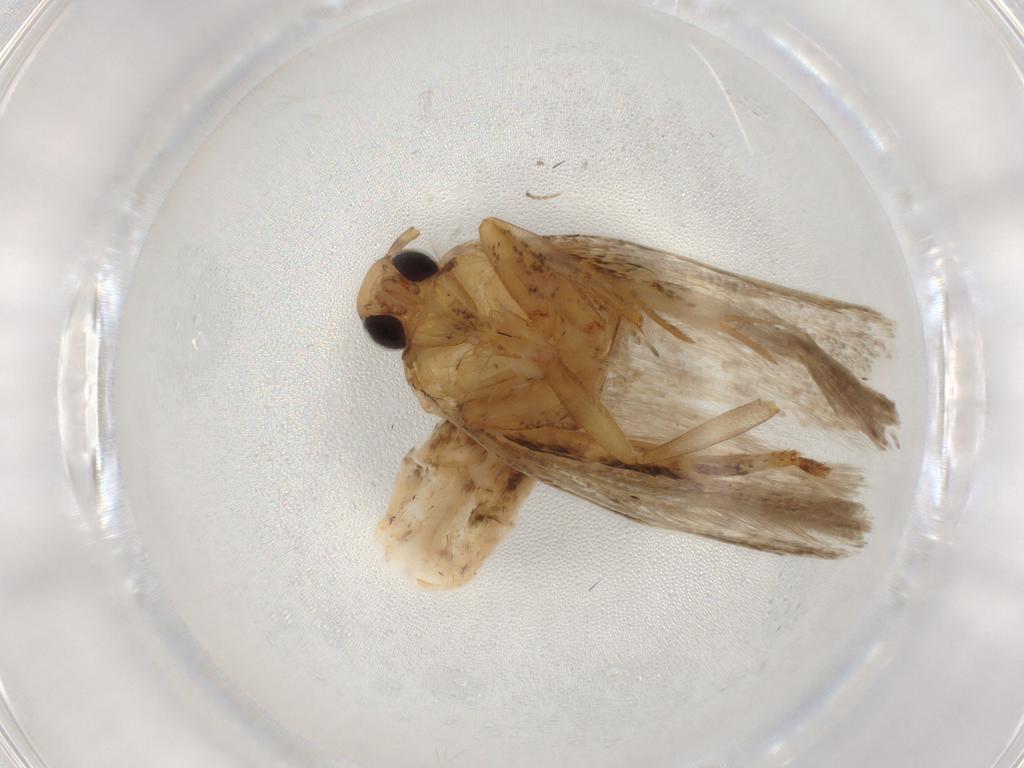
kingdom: Animalia
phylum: Arthropoda
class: Insecta
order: Lepidoptera
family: Gelechiidae
